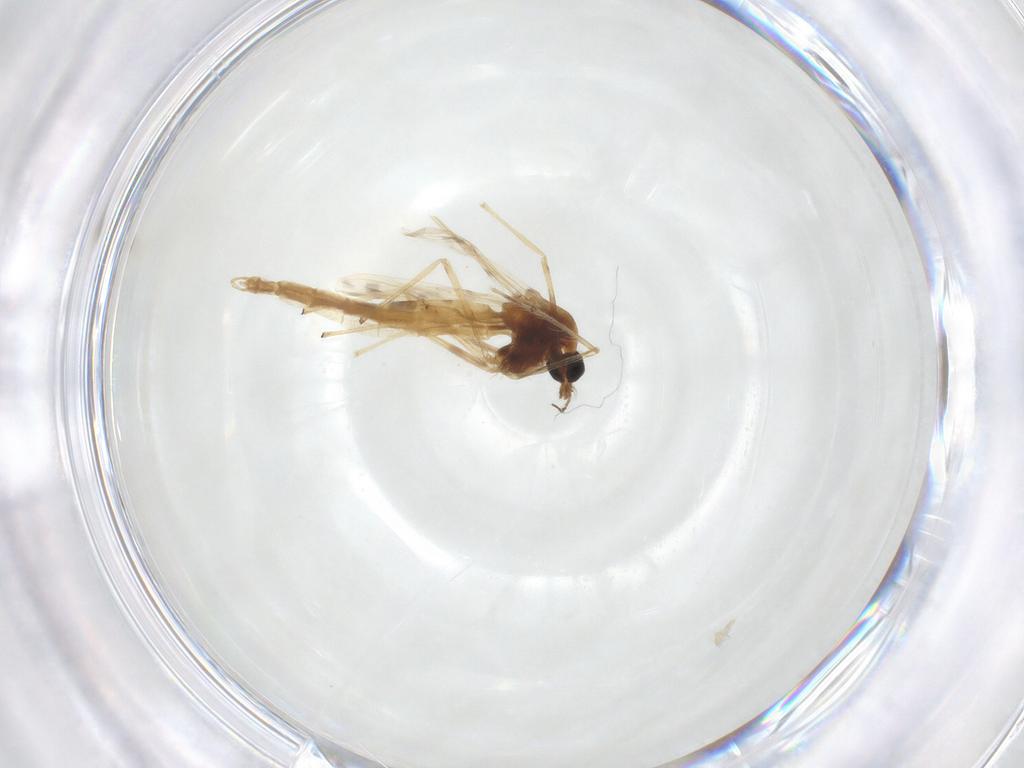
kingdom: Animalia
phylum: Arthropoda
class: Insecta
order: Diptera
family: Chironomidae
